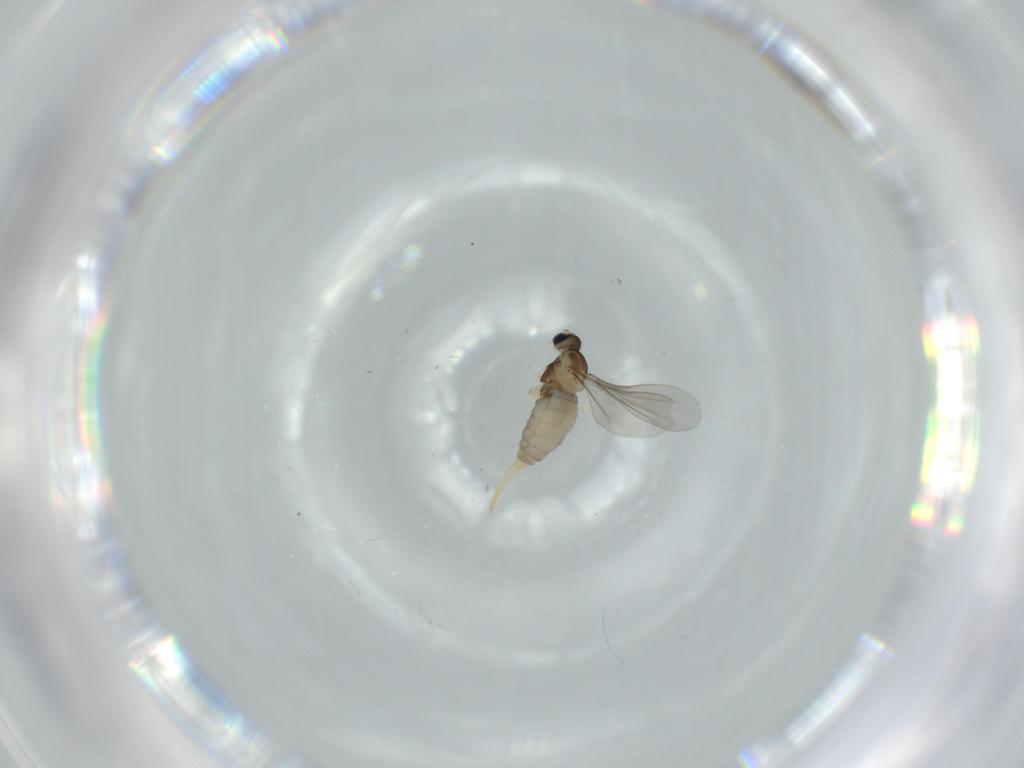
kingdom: Animalia
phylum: Arthropoda
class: Insecta
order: Diptera
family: Cecidomyiidae
